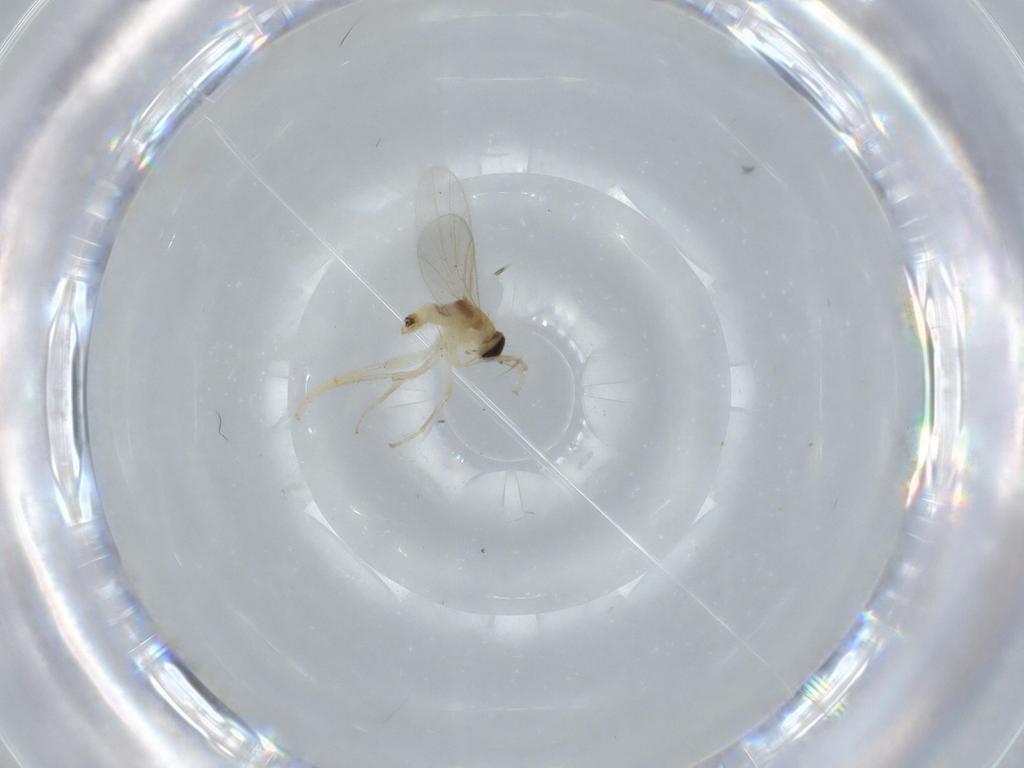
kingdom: Animalia
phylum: Arthropoda
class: Insecta
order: Diptera
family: Hybotidae
